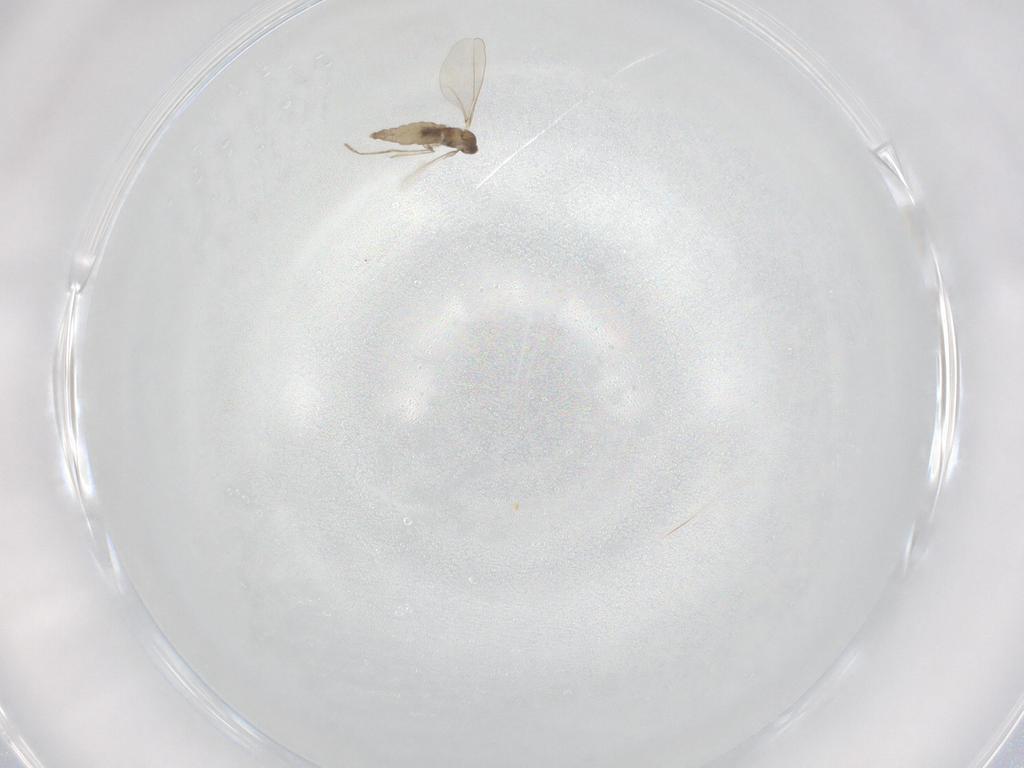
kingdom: Animalia
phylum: Arthropoda
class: Insecta
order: Diptera
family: Cecidomyiidae
